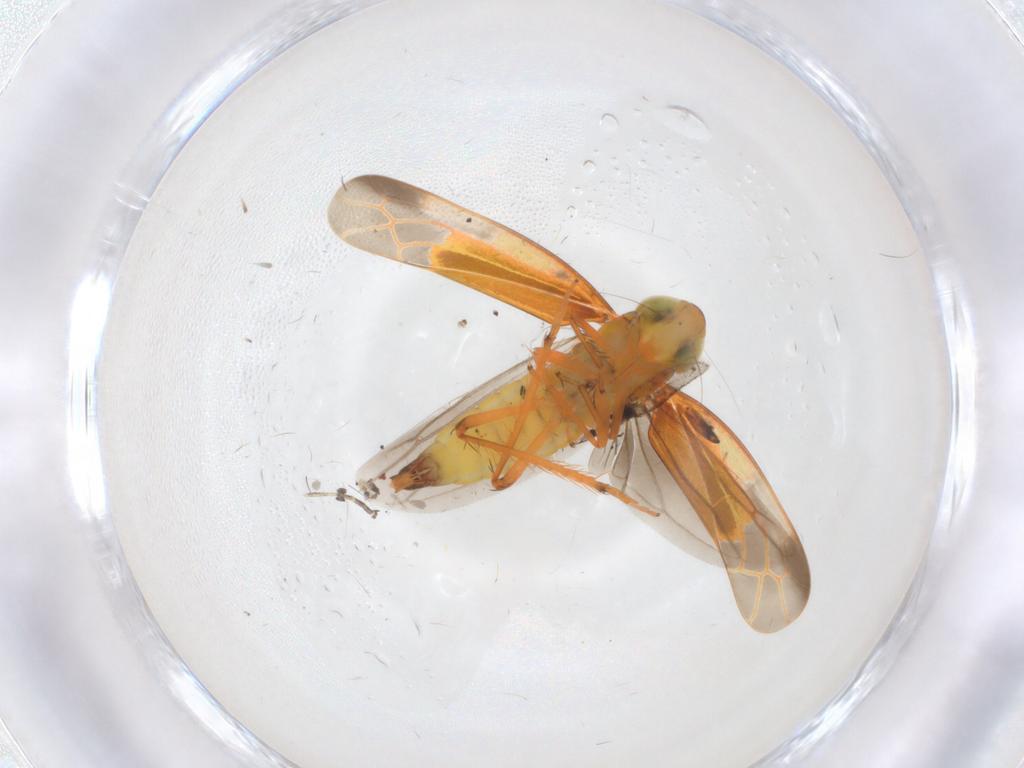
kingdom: Animalia
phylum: Arthropoda
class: Insecta
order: Hemiptera
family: Cicadellidae
